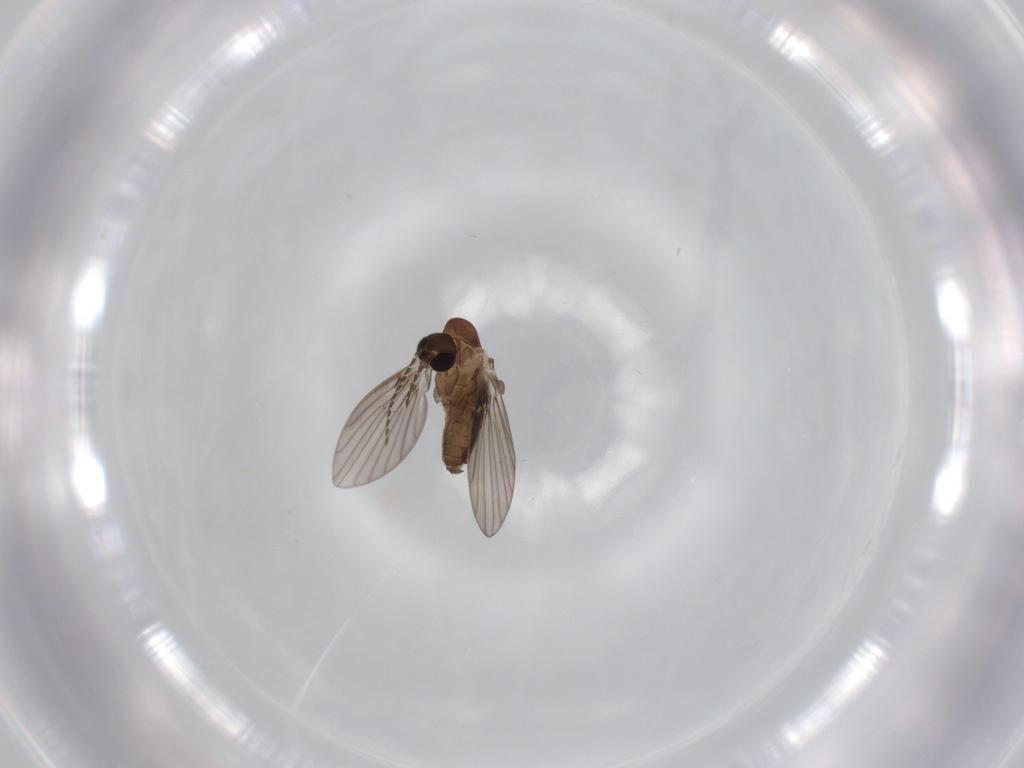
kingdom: Animalia
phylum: Arthropoda
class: Insecta
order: Diptera
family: Psychodidae
